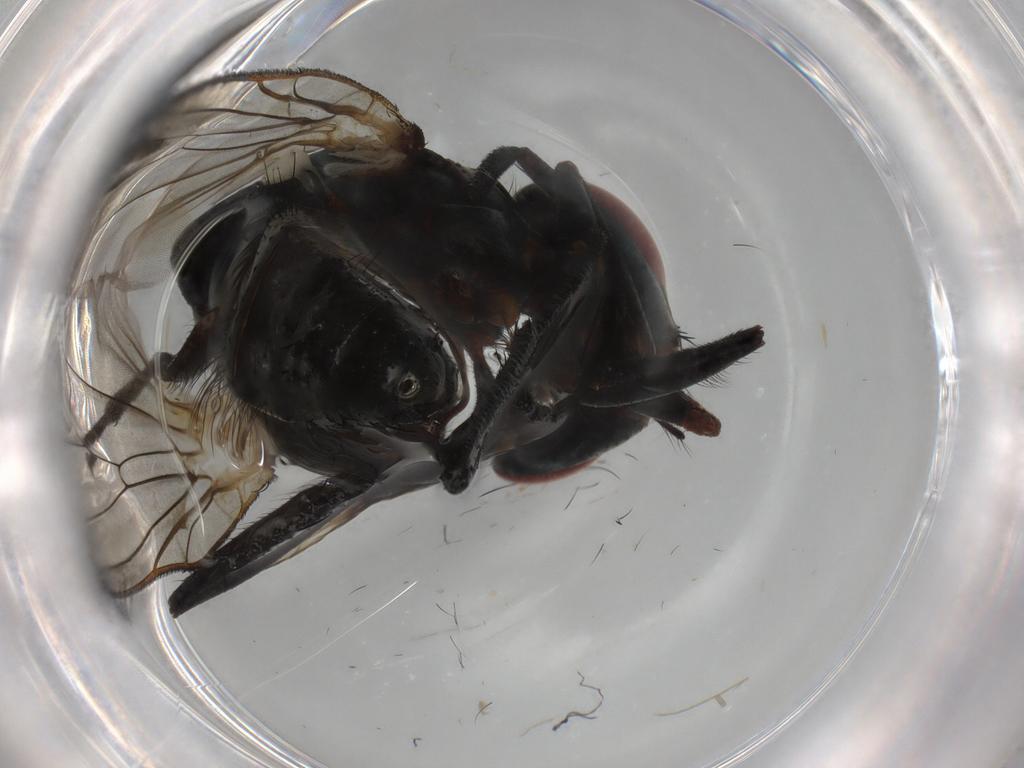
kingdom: Animalia
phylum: Arthropoda
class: Insecta
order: Diptera
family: Anthomyiidae
